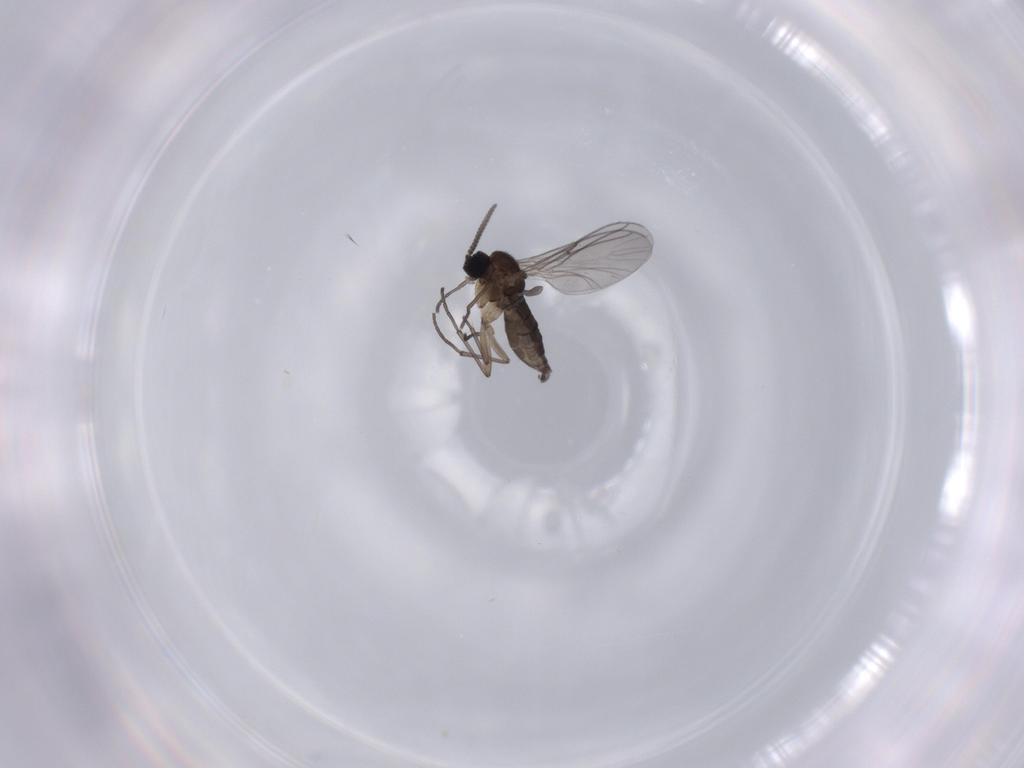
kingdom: Animalia
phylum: Arthropoda
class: Insecta
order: Diptera
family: Sciaridae
